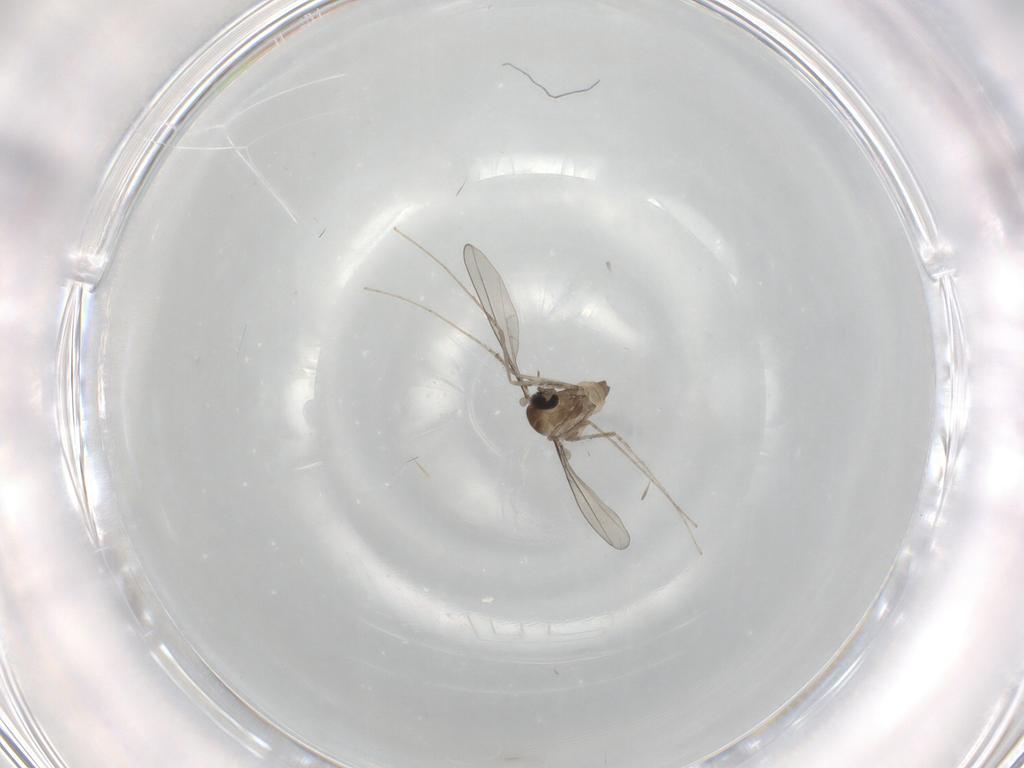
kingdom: Animalia
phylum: Arthropoda
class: Insecta
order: Diptera
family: Cecidomyiidae
